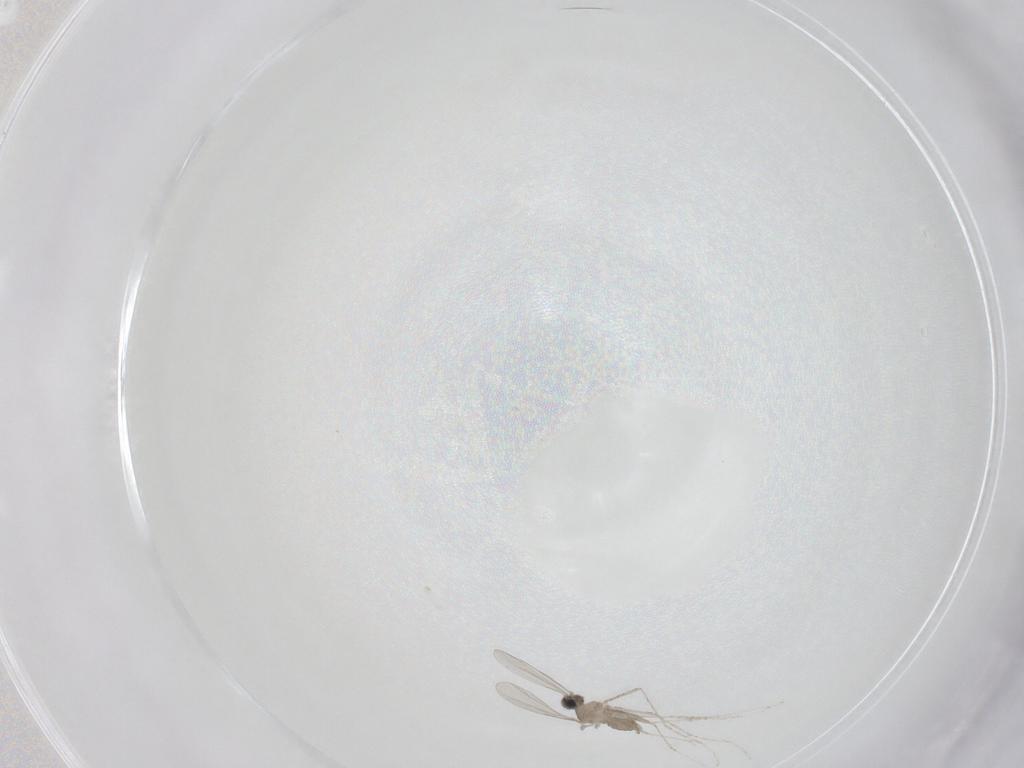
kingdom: Animalia
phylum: Arthropoda
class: Insecta
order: Diptera
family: Cecidomyiidae
